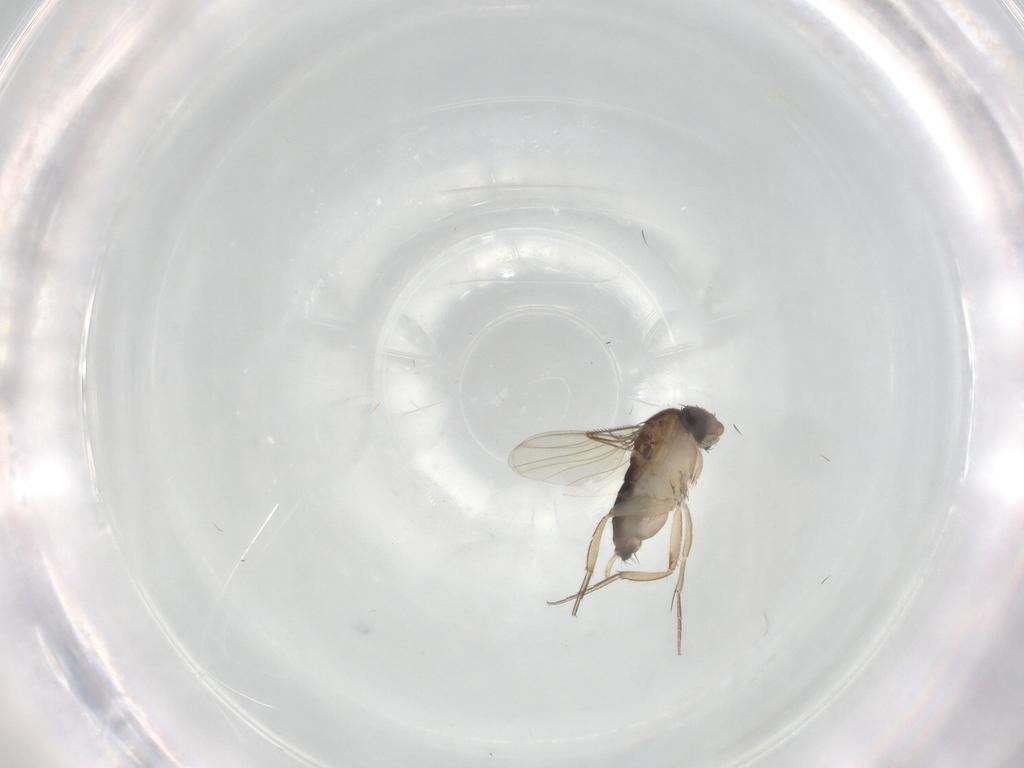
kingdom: Animalia
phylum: Arthropoda
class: Insecta
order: Diptera
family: Phoridae
